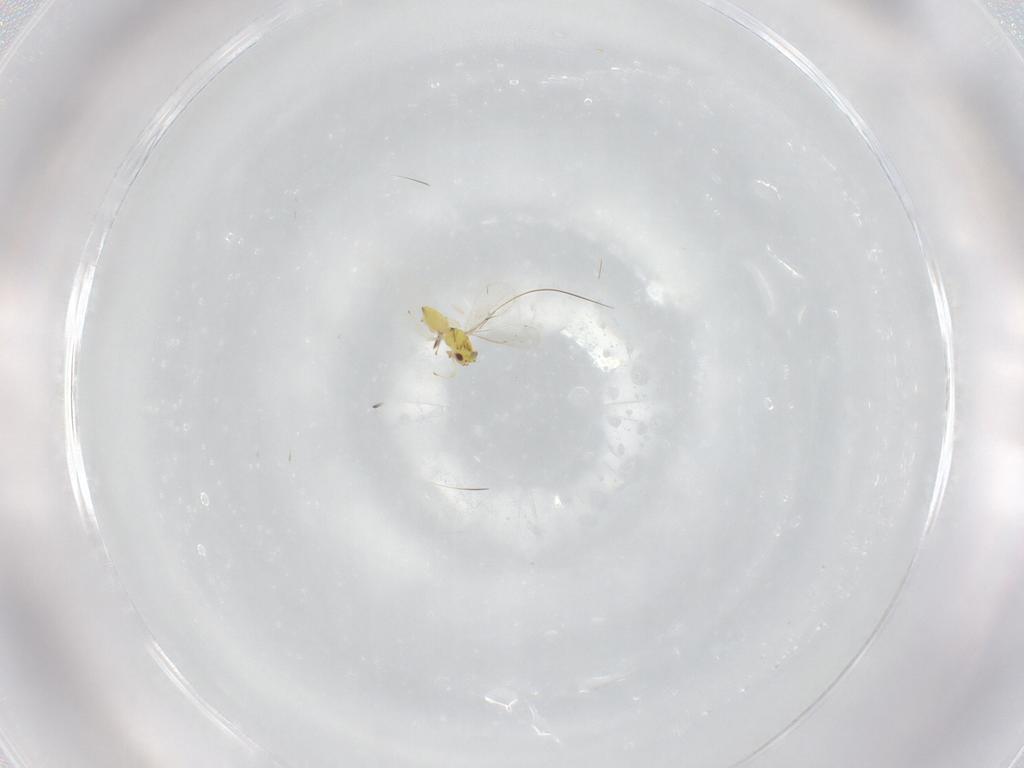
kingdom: Animalia
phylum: Arthropoda
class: Insecta
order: Hymenoptera
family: Eulophidae
